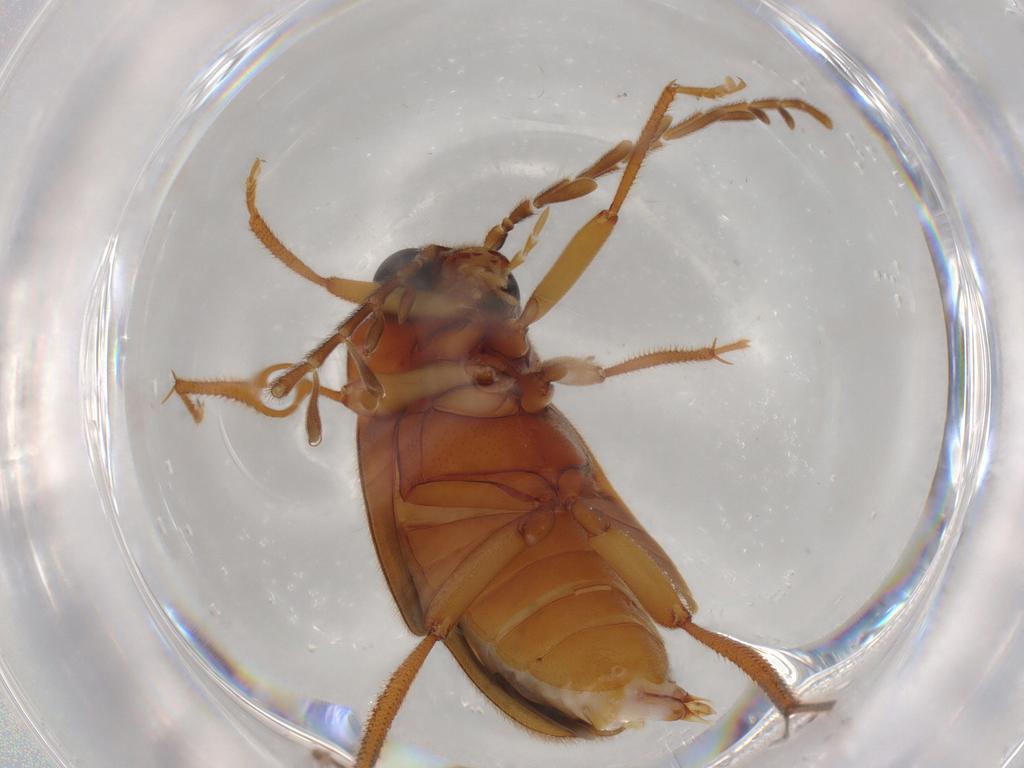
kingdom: Animalia
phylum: Arthropoda
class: Insecta
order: Coleoptera
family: Ptilodactylidae
